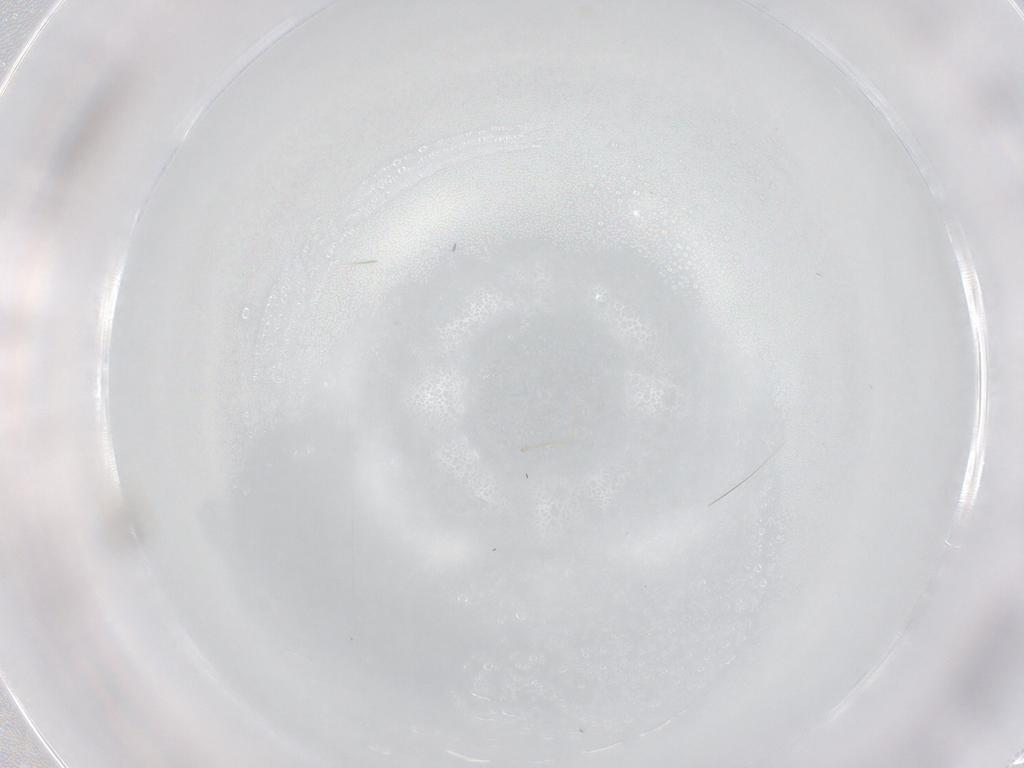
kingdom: Animalia
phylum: Arthropoda
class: Insecta
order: Diptera
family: Cecidomyiidae
